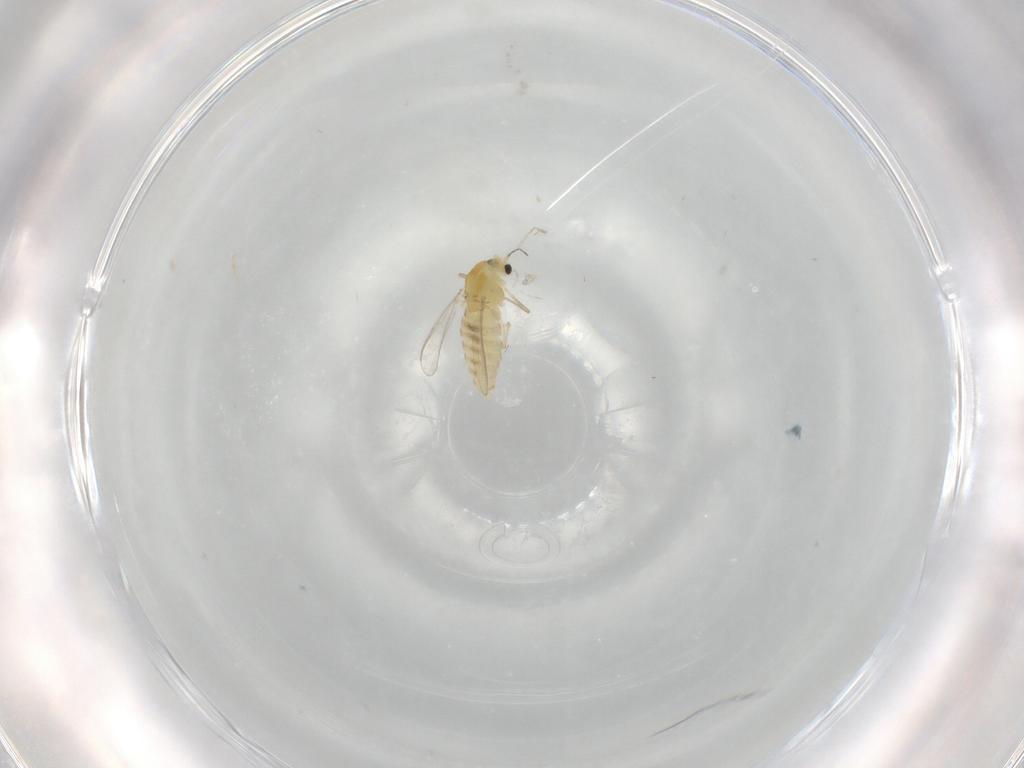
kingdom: Animalia
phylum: Arthropoda
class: Insecta
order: Diptera
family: Chironomidae
